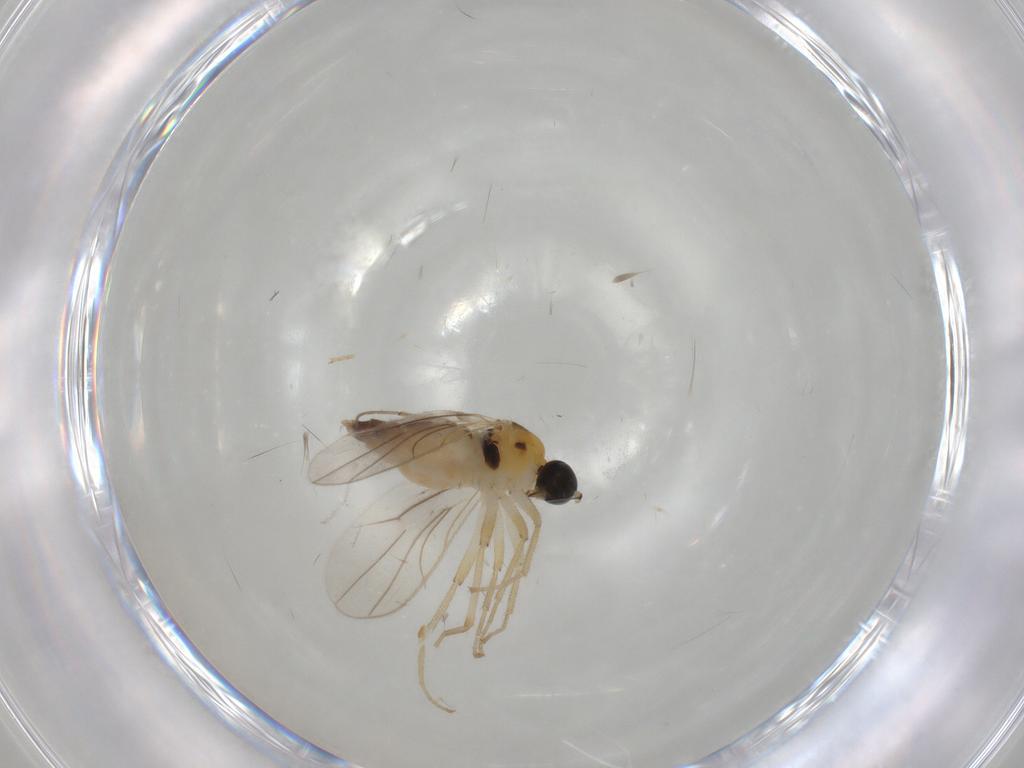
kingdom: Animalia
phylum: Arthropoda
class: Insecta
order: Diptera
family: Hybotidae
